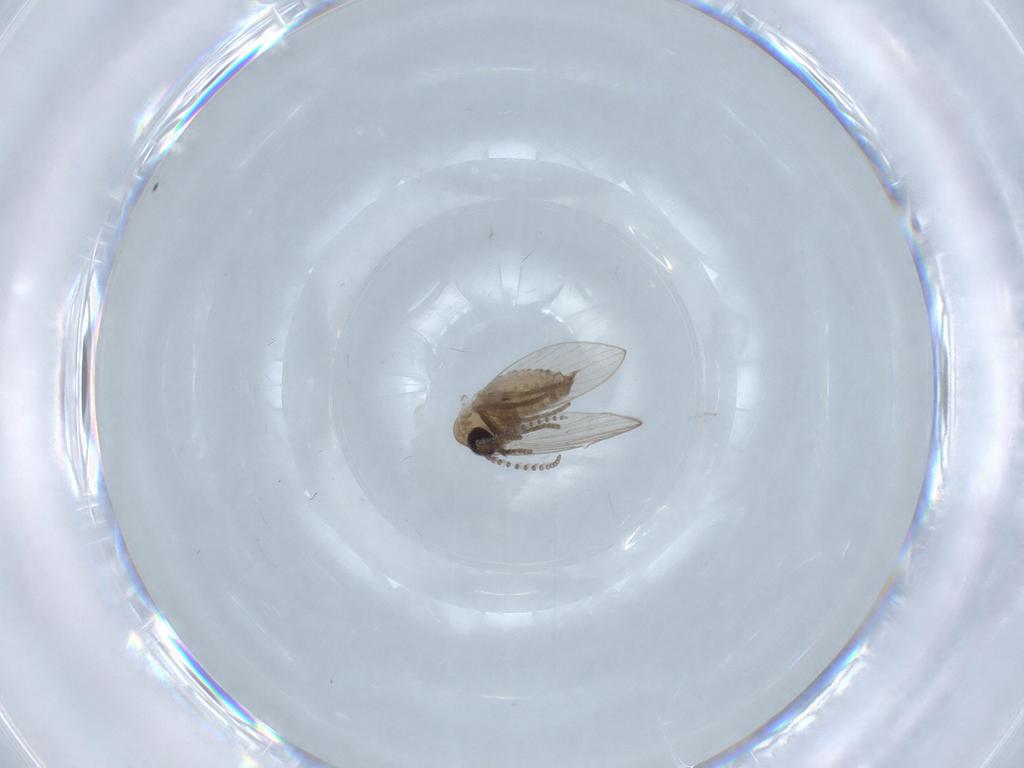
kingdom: Animalia
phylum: Arthropoda
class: Insecta
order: Diptera
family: Psychodidae
